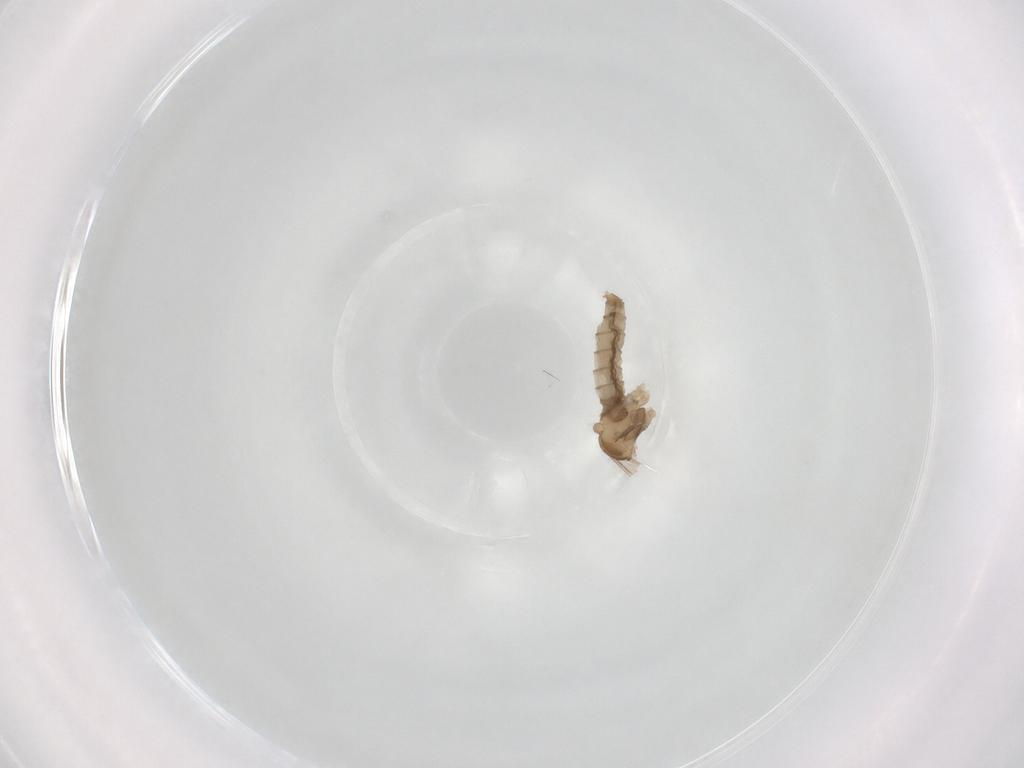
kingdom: Animalia
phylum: Arthropoda
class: Insecta
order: Diptera
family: Cecidomyiidae
